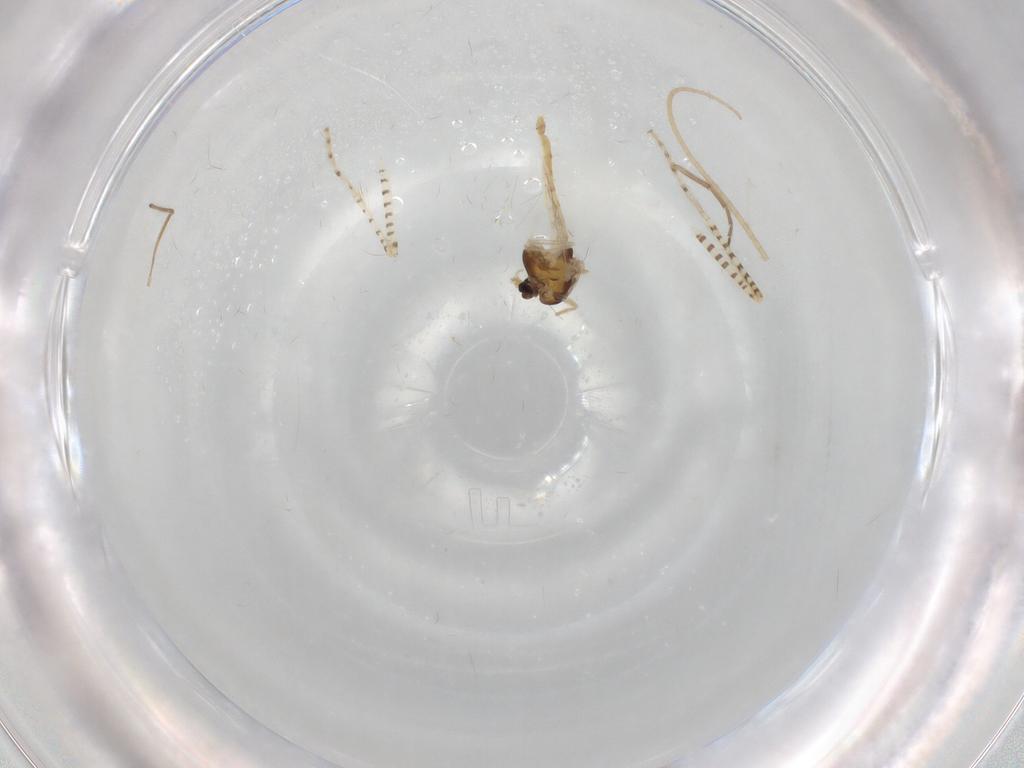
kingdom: Animalia
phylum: Arthropoda
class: Insecta
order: Diptera
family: Chironomidae
